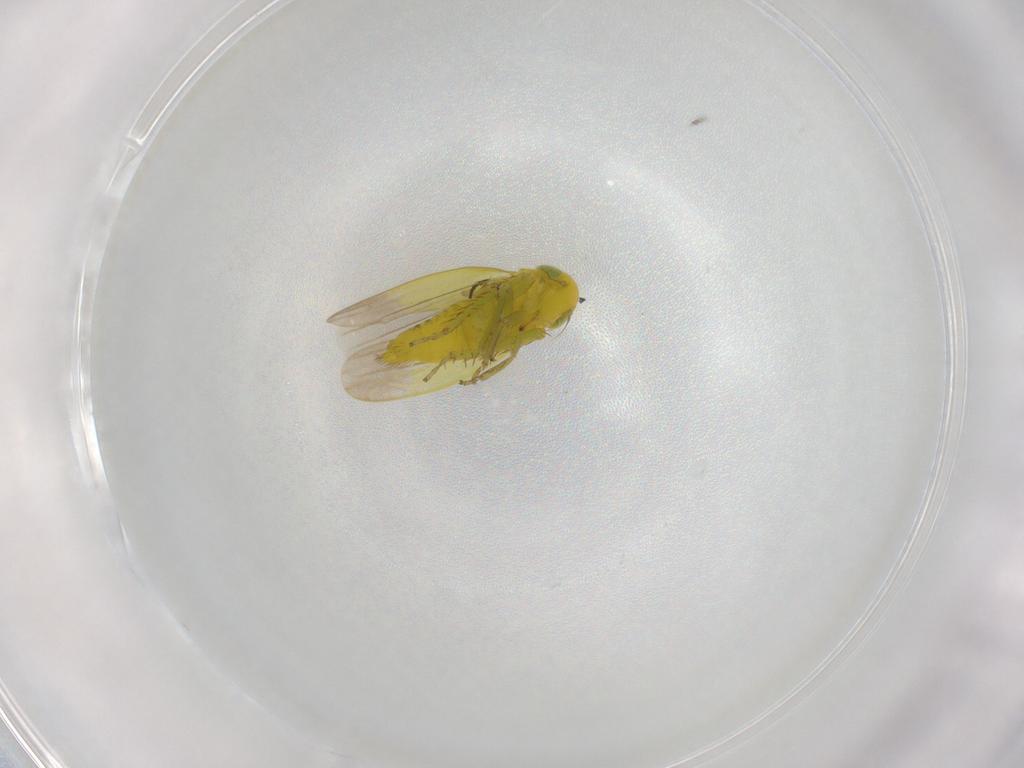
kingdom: Animalia
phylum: Arthropoda
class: Insecta
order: Diptera
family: Sciaridae
